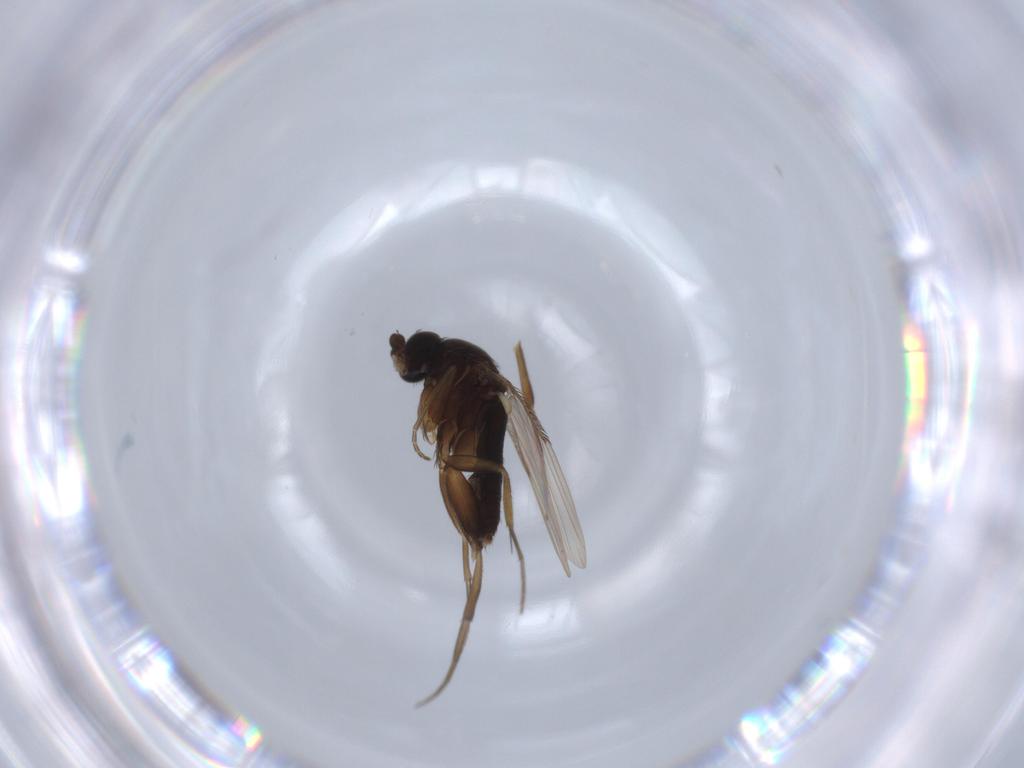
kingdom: Animalia
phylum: Arthropoda
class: Insecta
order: Diptera
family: Phoridae
